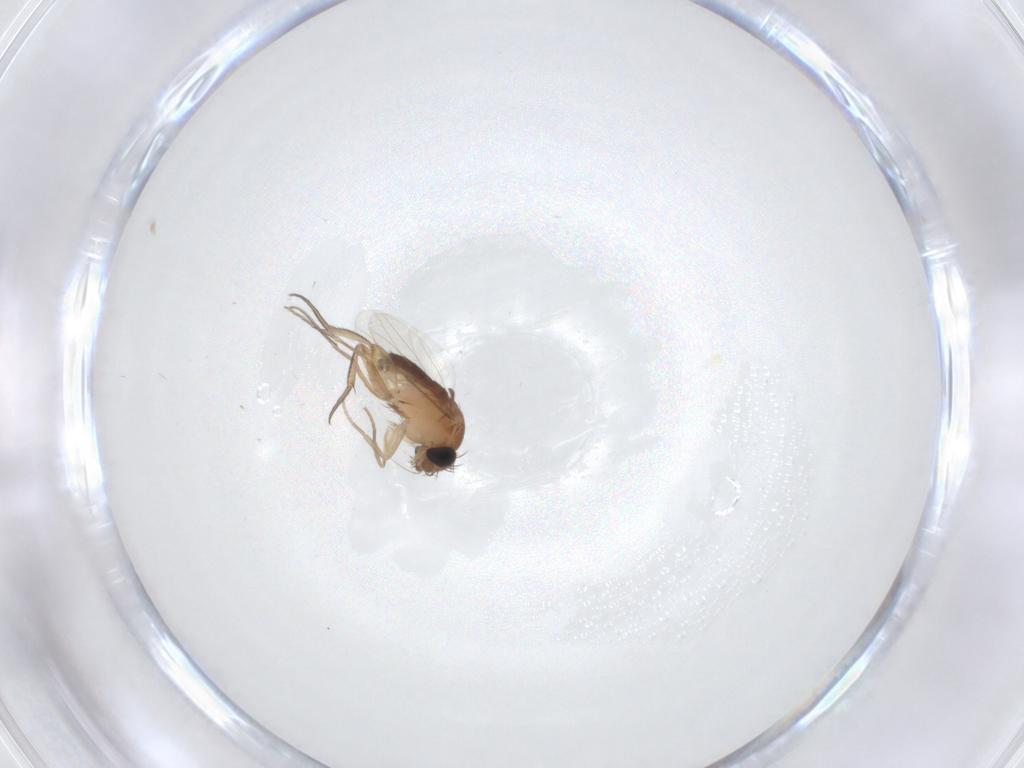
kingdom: Animalia
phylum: Arthropoda
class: Insecta
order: Diptera
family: Phoridae
